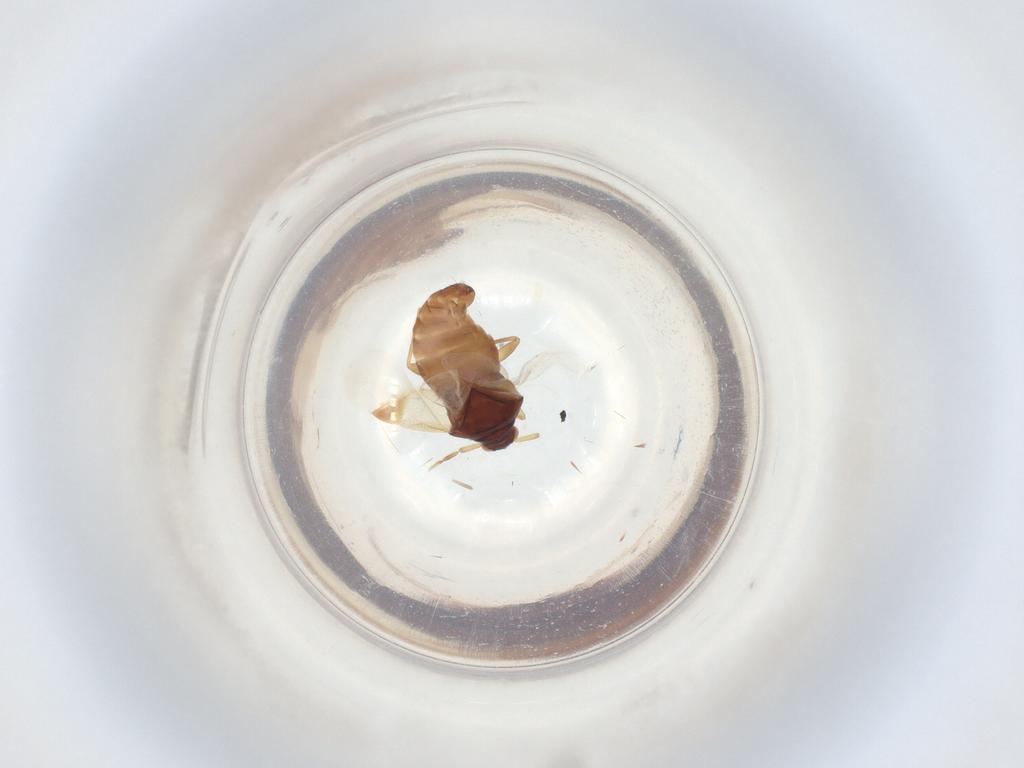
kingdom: Animalia
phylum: Arthropoda
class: Insecta
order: Hemiptera
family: Anthocoridae
